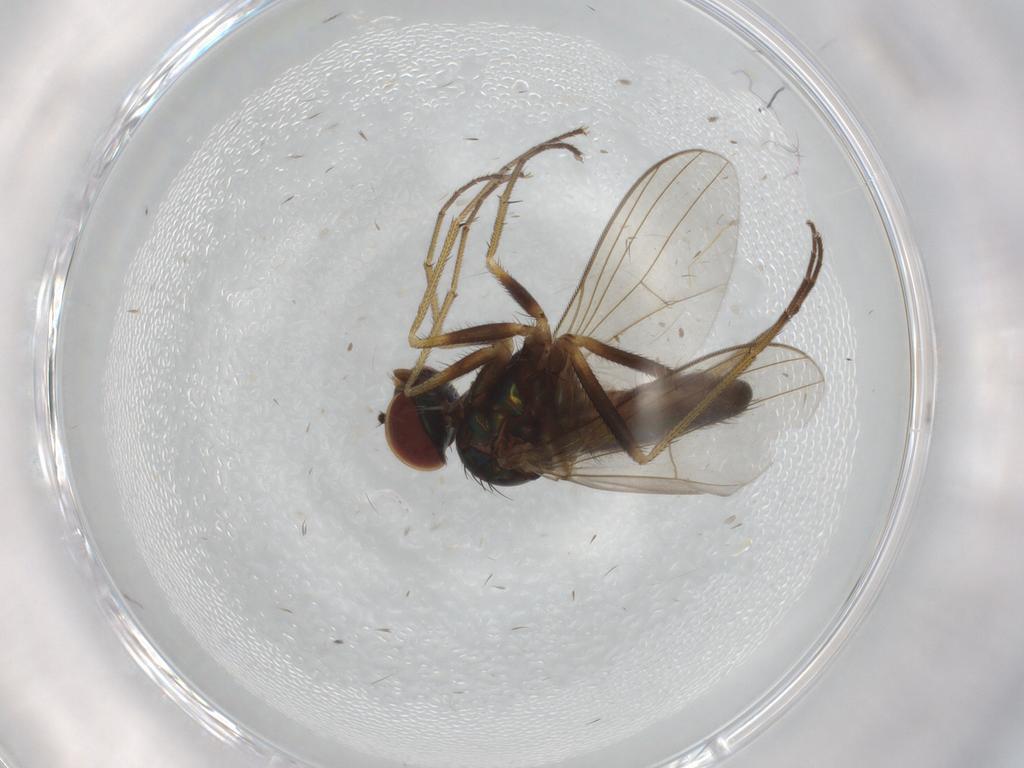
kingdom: Animalia
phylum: Arthropoda
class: Insecta
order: Diptera
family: Dolichopodidae
